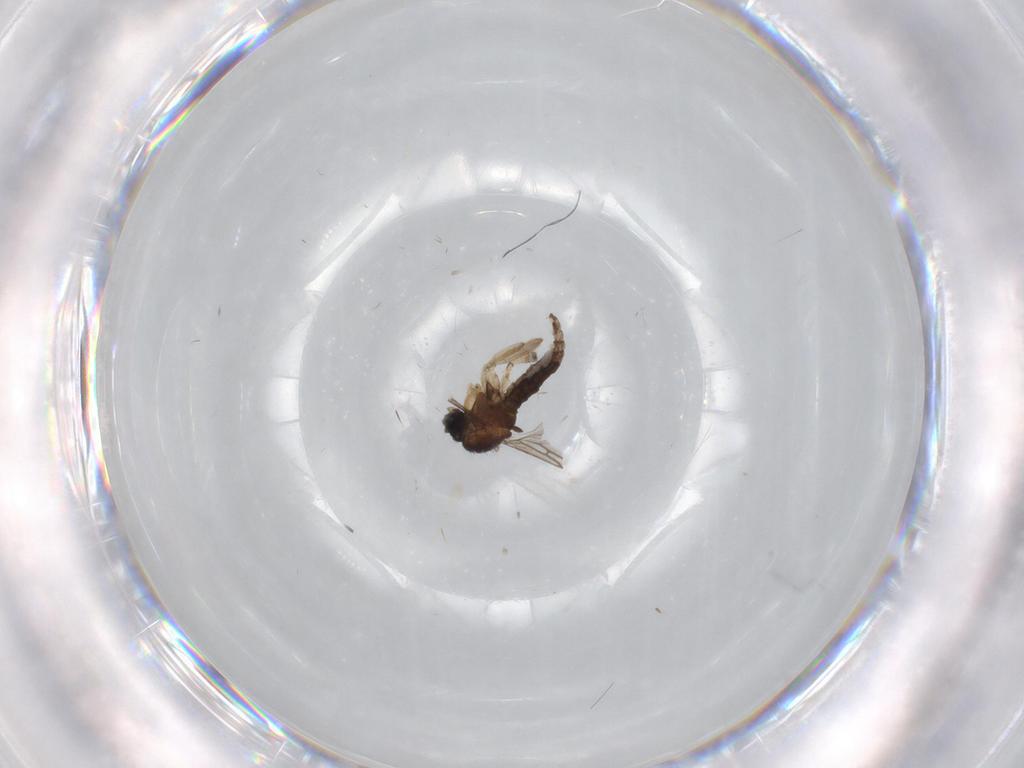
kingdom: Animalia
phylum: Arthropoda
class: Insecta
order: Diptera
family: Sciaridae
